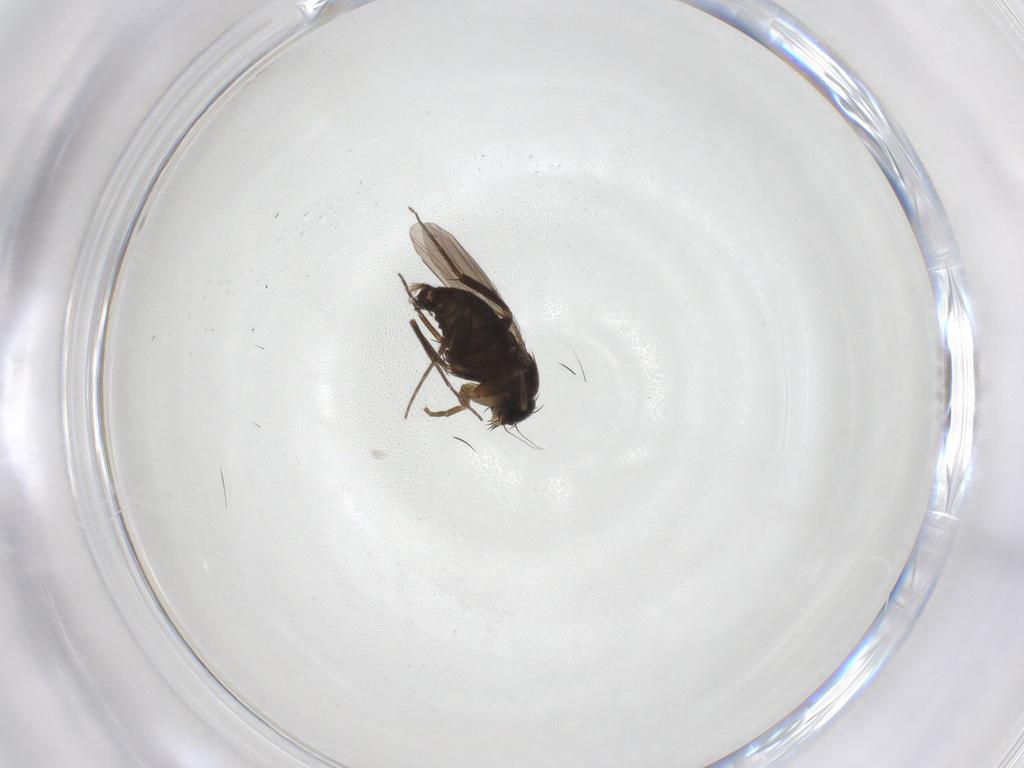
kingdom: Animalia
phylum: Arthropoda
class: Insecta
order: Diptera
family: Phoridae
